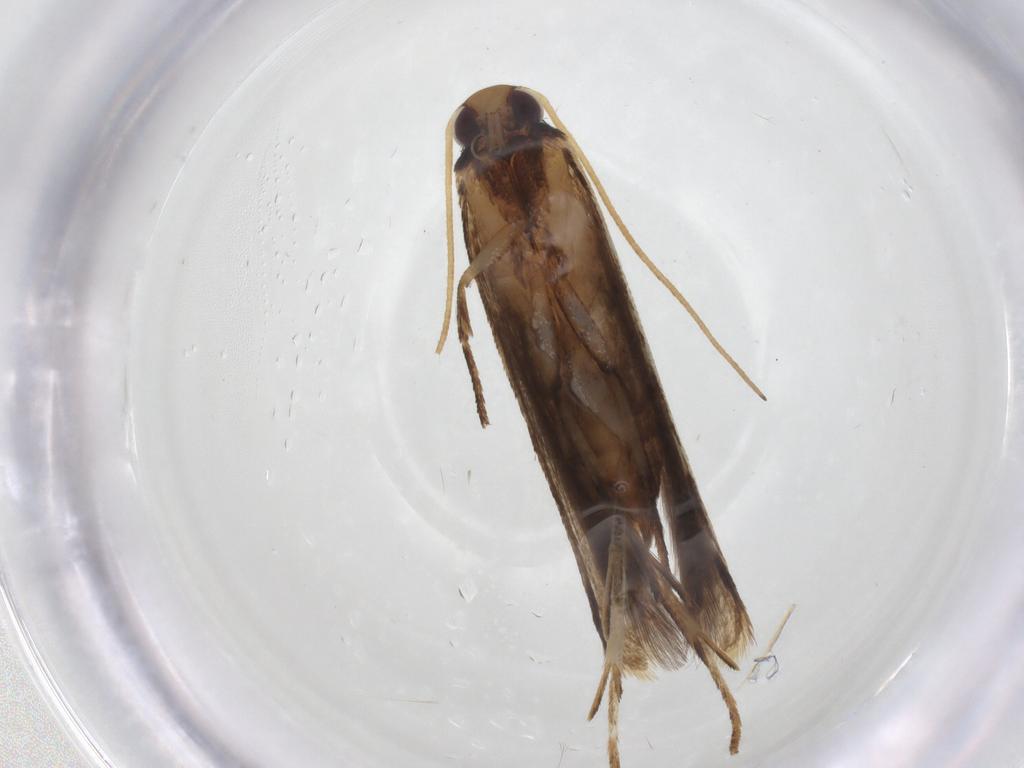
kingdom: Animalia
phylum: Arthropoda
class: Insecta
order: Lepidoptera
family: Gelechiidae
